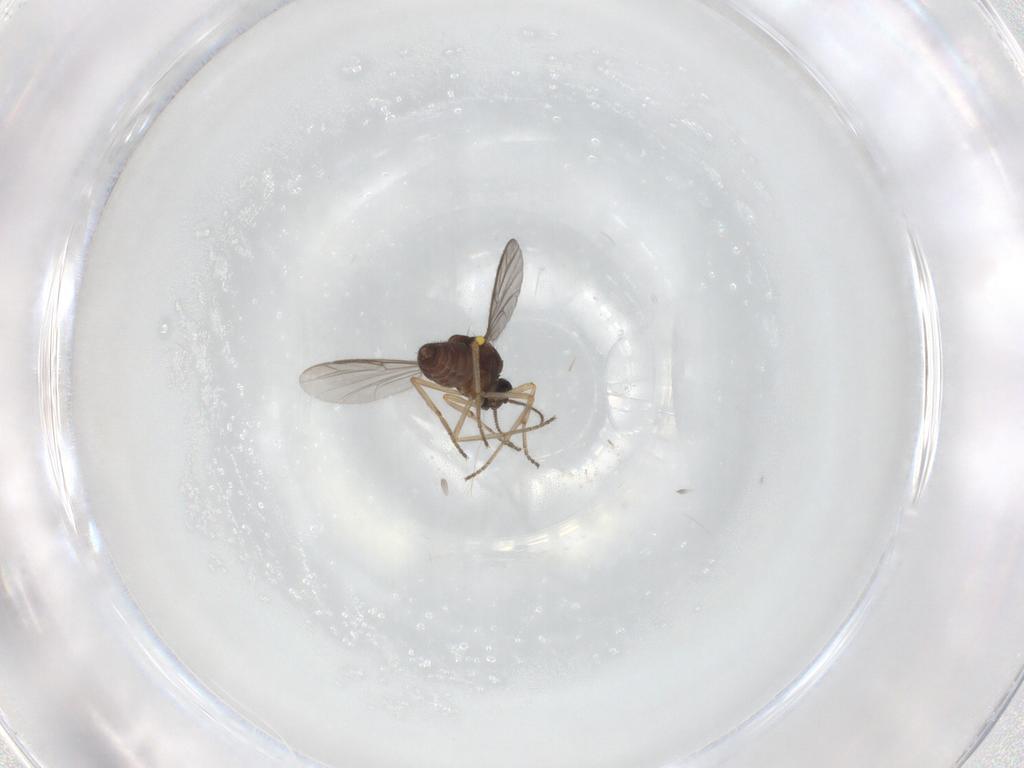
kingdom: Animalia
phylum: Arthropoda
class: Insecta
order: Diptera
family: Ceratopogonidae
